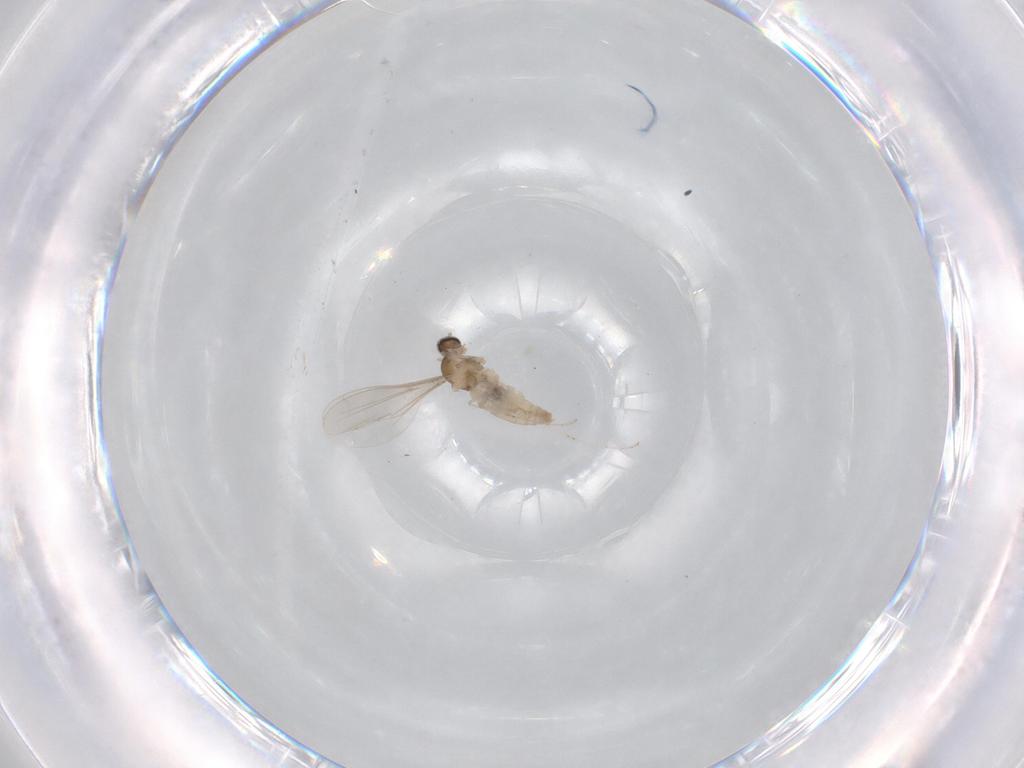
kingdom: Animalia
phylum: Arthropoda
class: Insecta
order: Diptera
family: Cecidomyiidae
